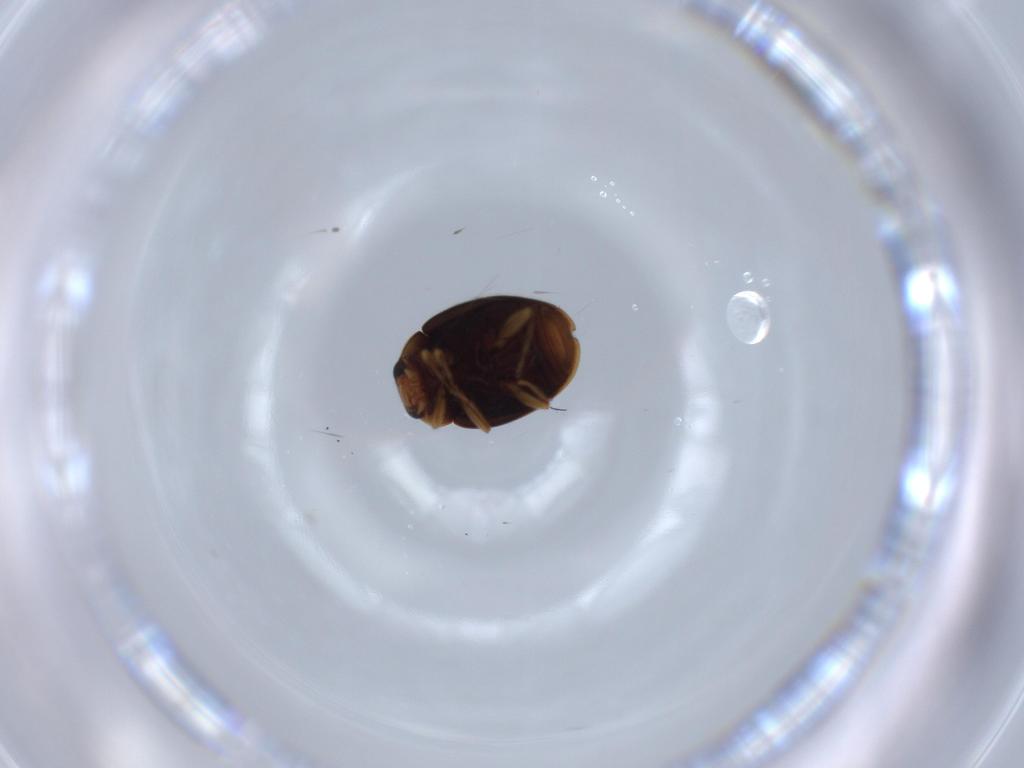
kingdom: Animalia
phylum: Arthropoda
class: Insecta
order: Coleoptera
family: Coccinellidae
